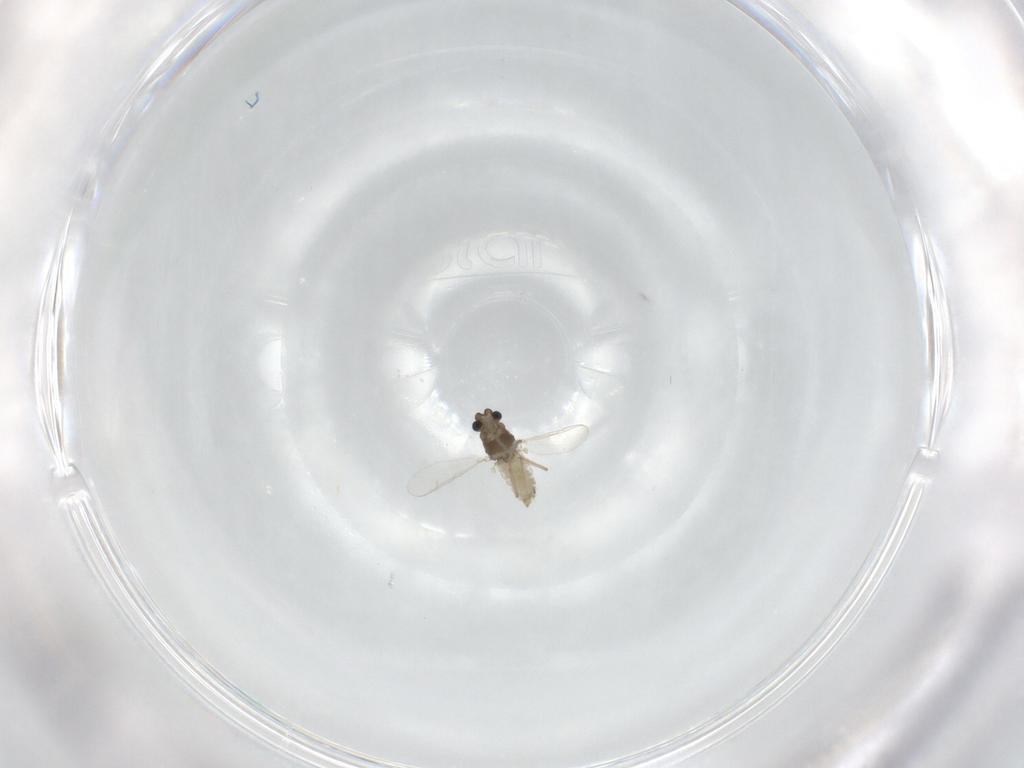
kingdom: Animalia
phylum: Arthropoda
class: Insecta
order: Diptera
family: Chironomidae
